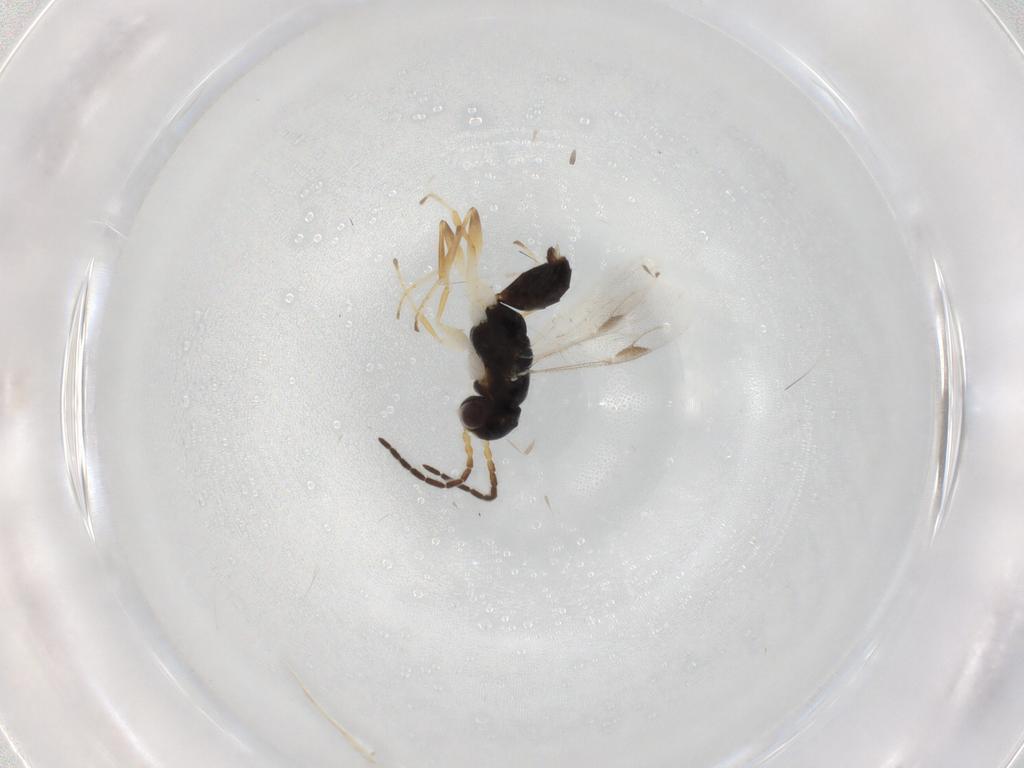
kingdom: Animalia
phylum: Arthropoda
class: Insecta
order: Hymenoptera
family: Dryinidae
